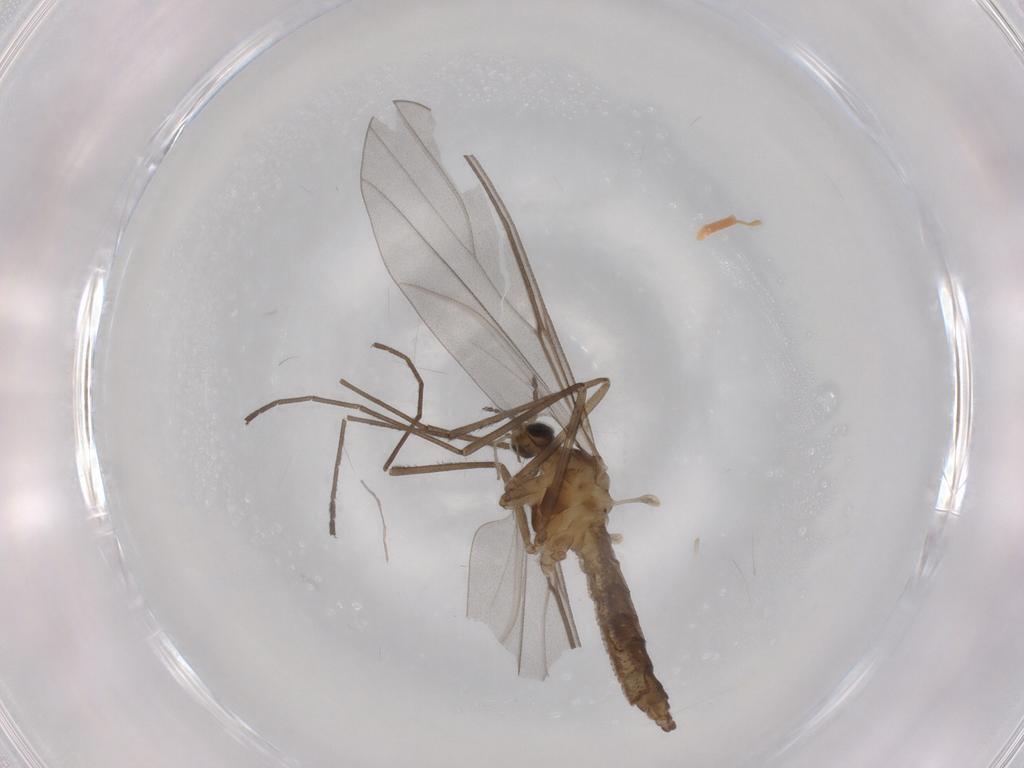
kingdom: Animalia
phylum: Arthropoda
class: Insecta
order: Diptera
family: Cecidomyiidae
